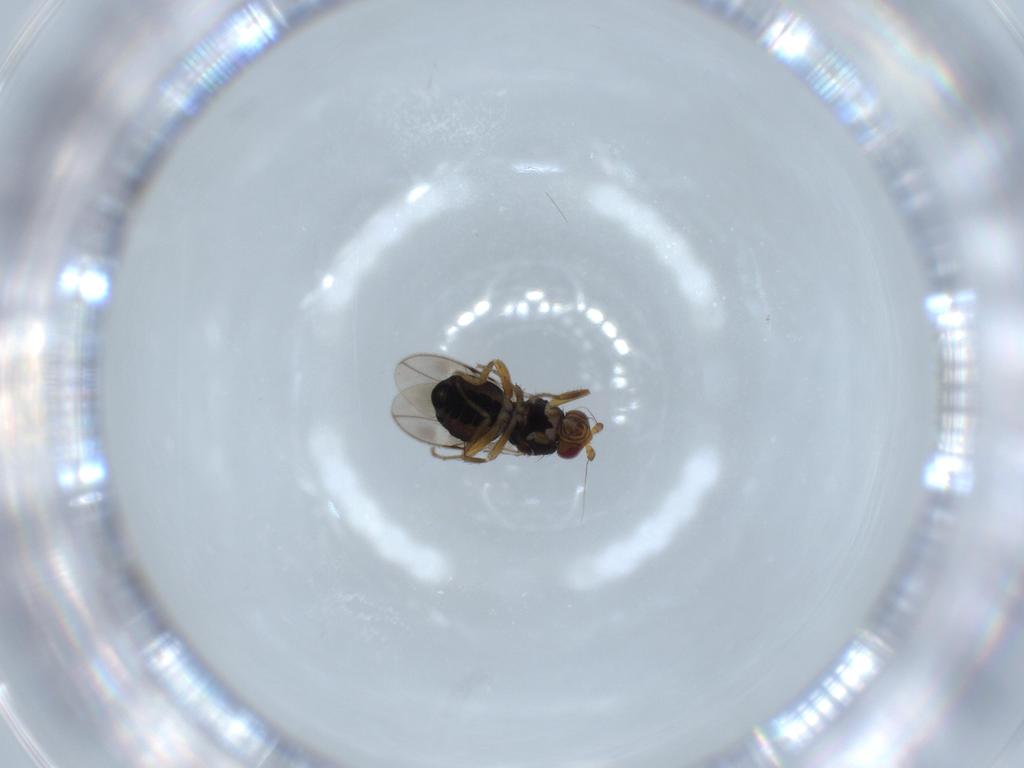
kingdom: Animalia
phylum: Arthropoda
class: Insecta
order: Diptera
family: Sphaeroceridae
